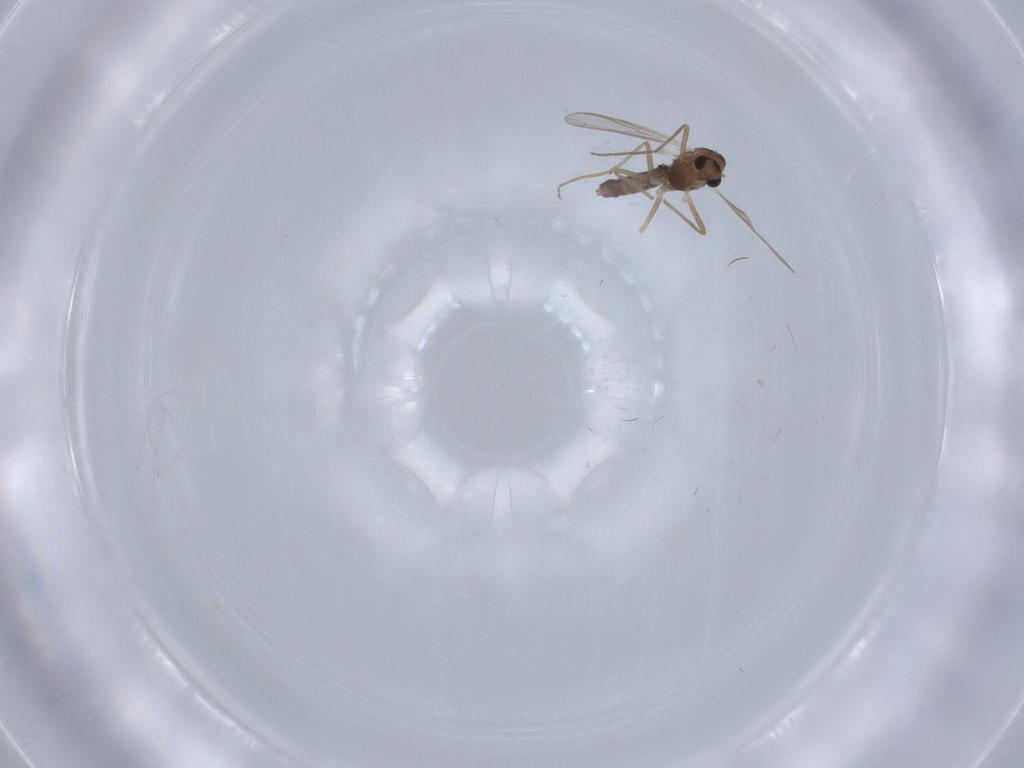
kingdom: Animalia
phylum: Arthropoda
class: Insecta
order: Diptera
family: Chironomidae
